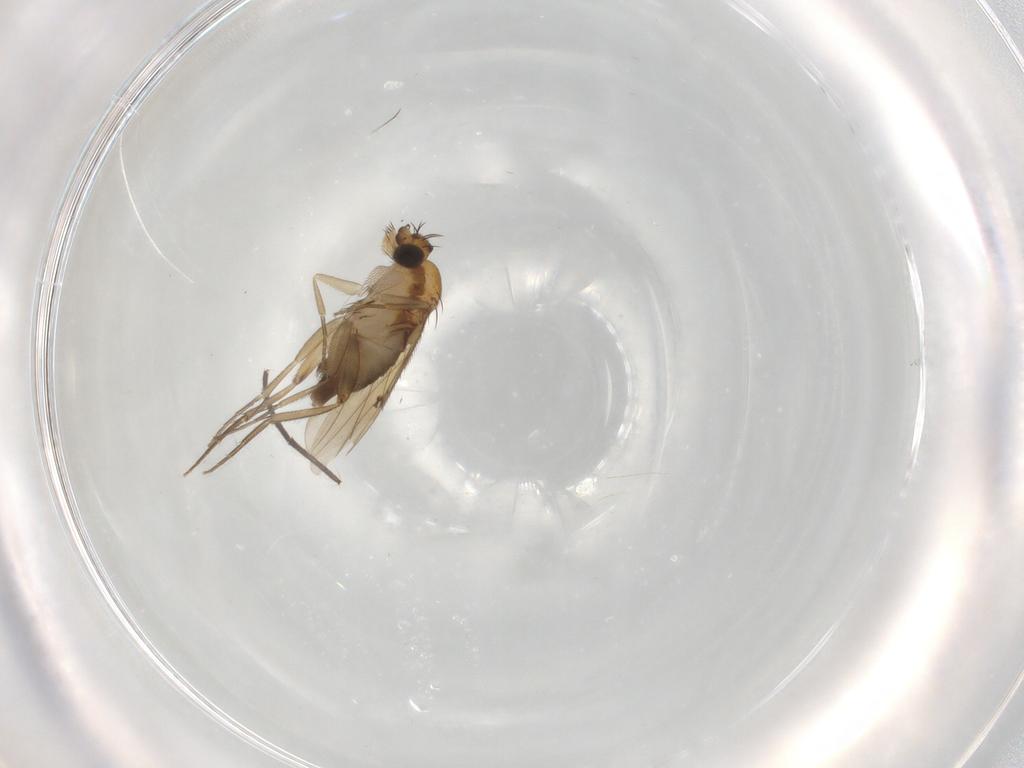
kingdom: Animalia
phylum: Arthropoda
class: Insecta
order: Diptera
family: Phoridae
